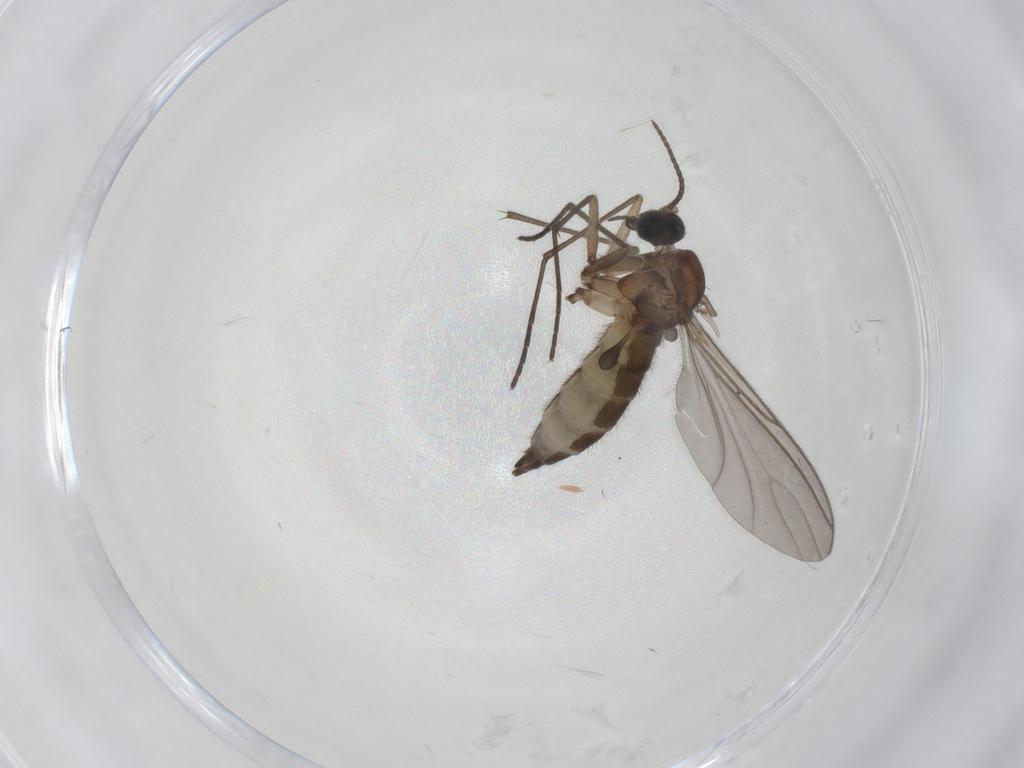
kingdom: Animalia
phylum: Arthropoda
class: Insecta
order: Diptera
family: Sciaridae
